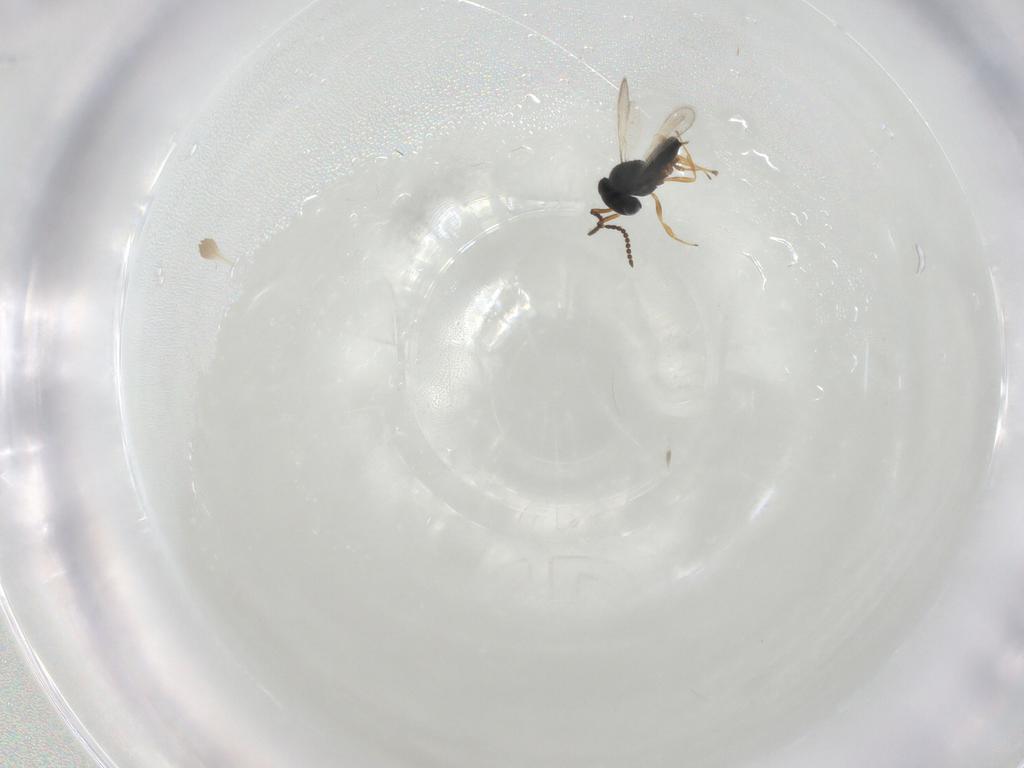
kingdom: Animalia
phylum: Arthropoda
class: Insecta
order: Hymenoptera
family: Scelionidae
